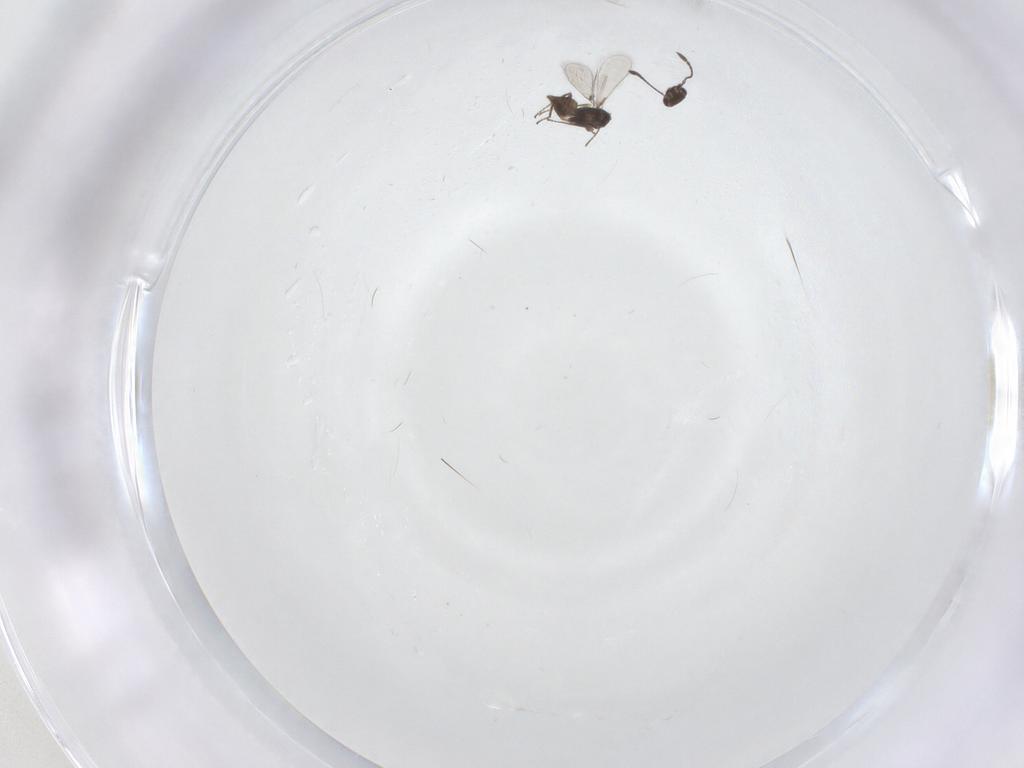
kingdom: Animalia
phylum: Arthropoda
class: Insecta
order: Hymenoptera
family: Mymaridae
